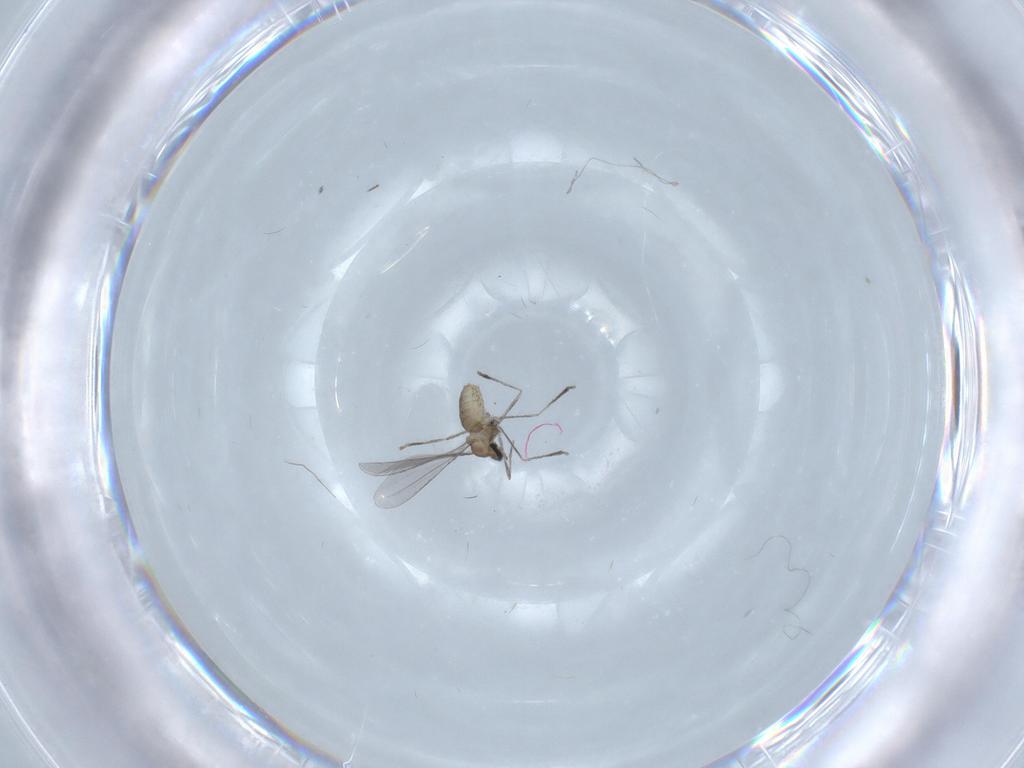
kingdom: Animalia
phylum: Arthropoda
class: Insecta
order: Diptera
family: Cecidomyiidae
